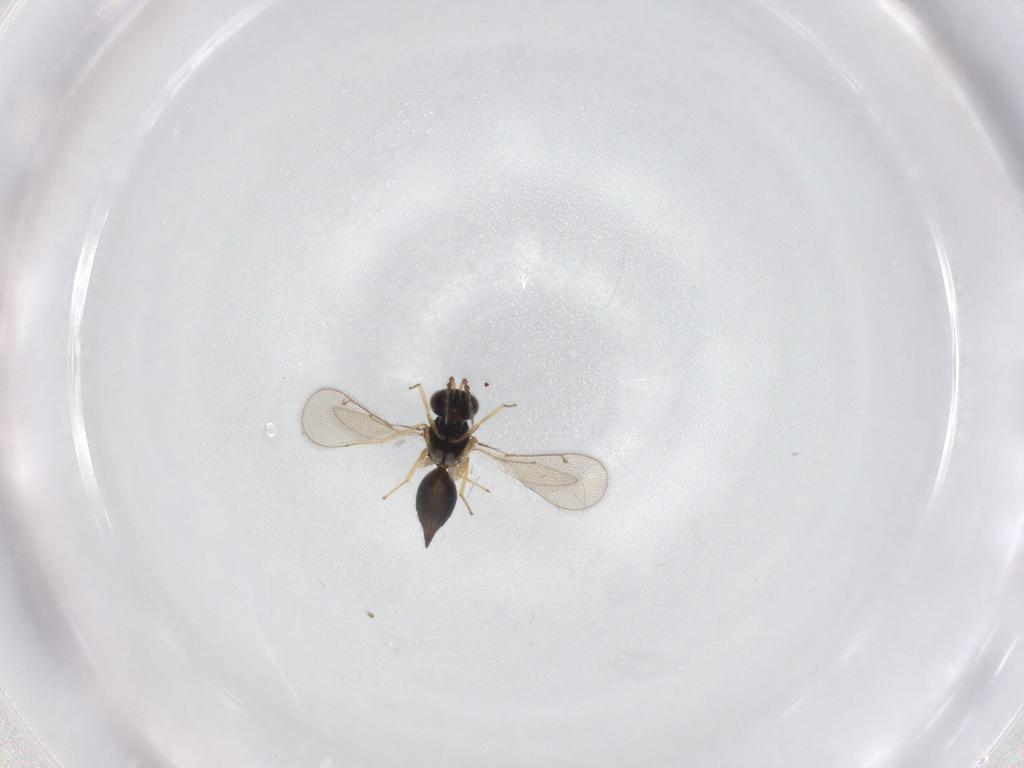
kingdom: Animalia
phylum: Arthropoda
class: Insecta
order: Hymenoptera
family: Eulophidae
